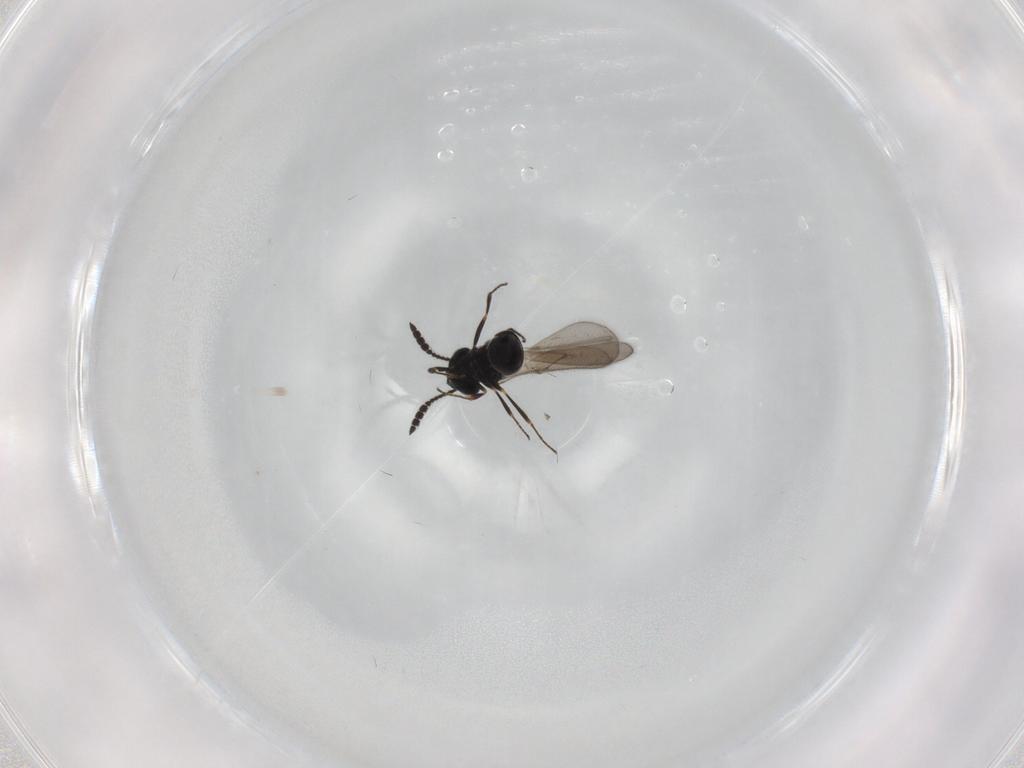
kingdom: Animalia
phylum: Arthropoda
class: Insecta
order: Hymenoptera
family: Scelionidae
